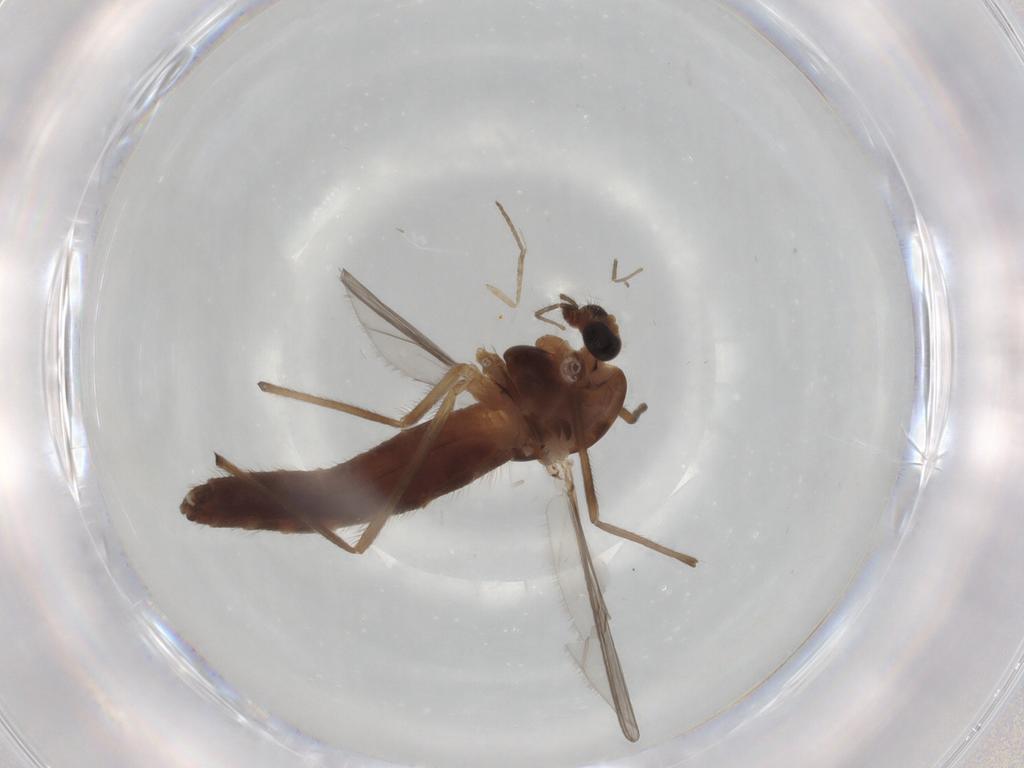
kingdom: Animalia
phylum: Arthropoda
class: Insecta
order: Diptera
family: Chironomidae
